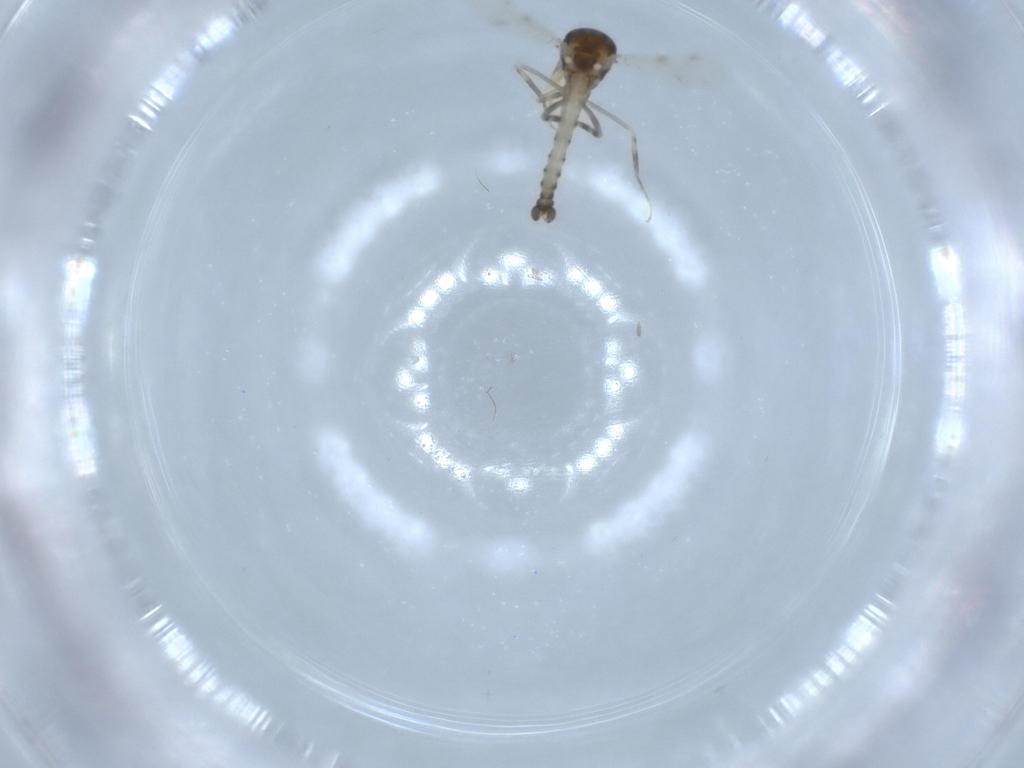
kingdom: Animalia
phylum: Arthropoda
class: Insecta
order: Diptera
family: Ceratopogonidae
